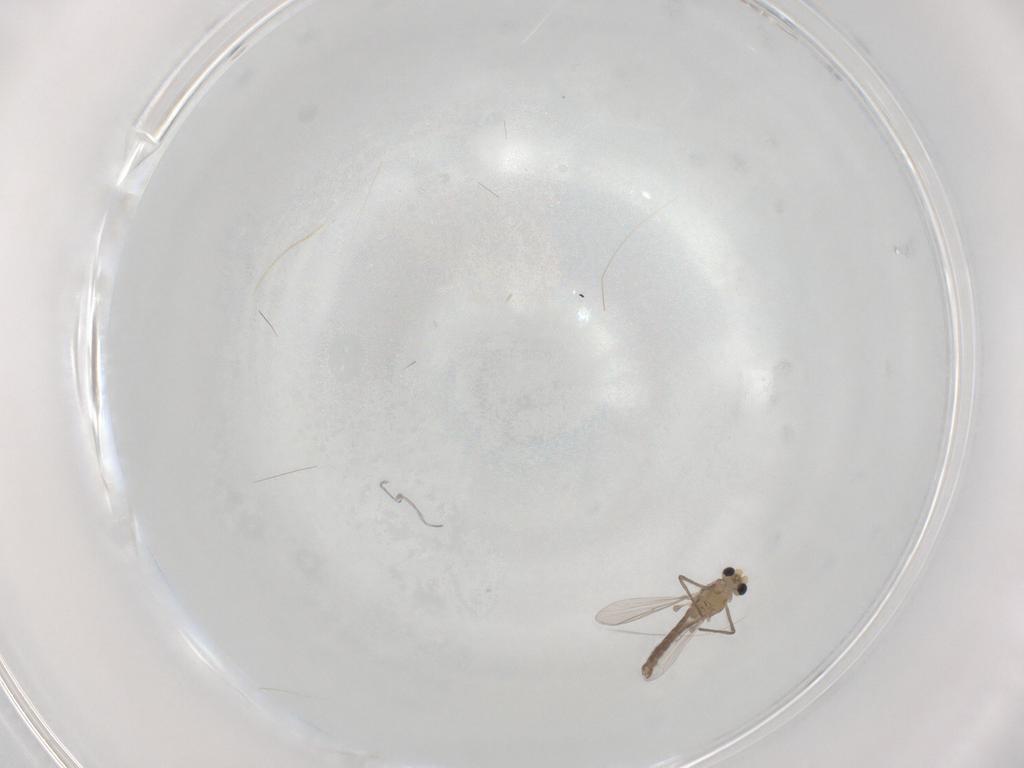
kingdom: Animalia
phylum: Arthropoda
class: Insecta
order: Diptera
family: Chironomidae
